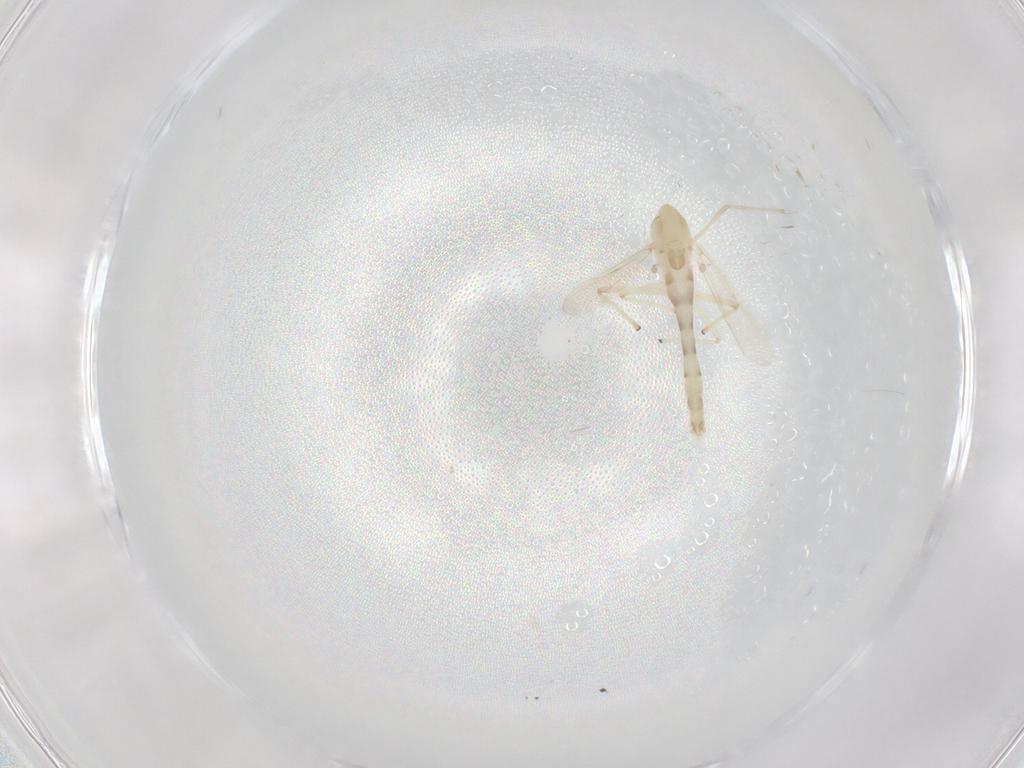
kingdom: Animalia
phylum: Arthropoda
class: Insecta
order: Diptera
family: Chironomidae
